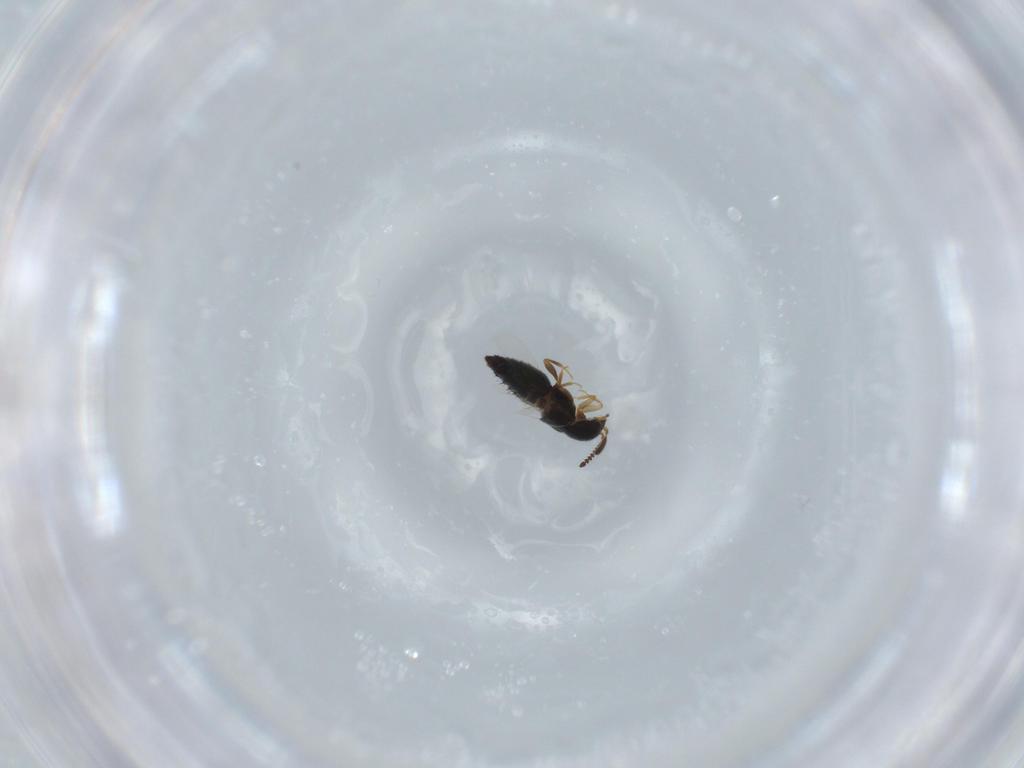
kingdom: Animalia
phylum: Arthropoda
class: Insecta
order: Coleoptera
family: Staphylinidae
